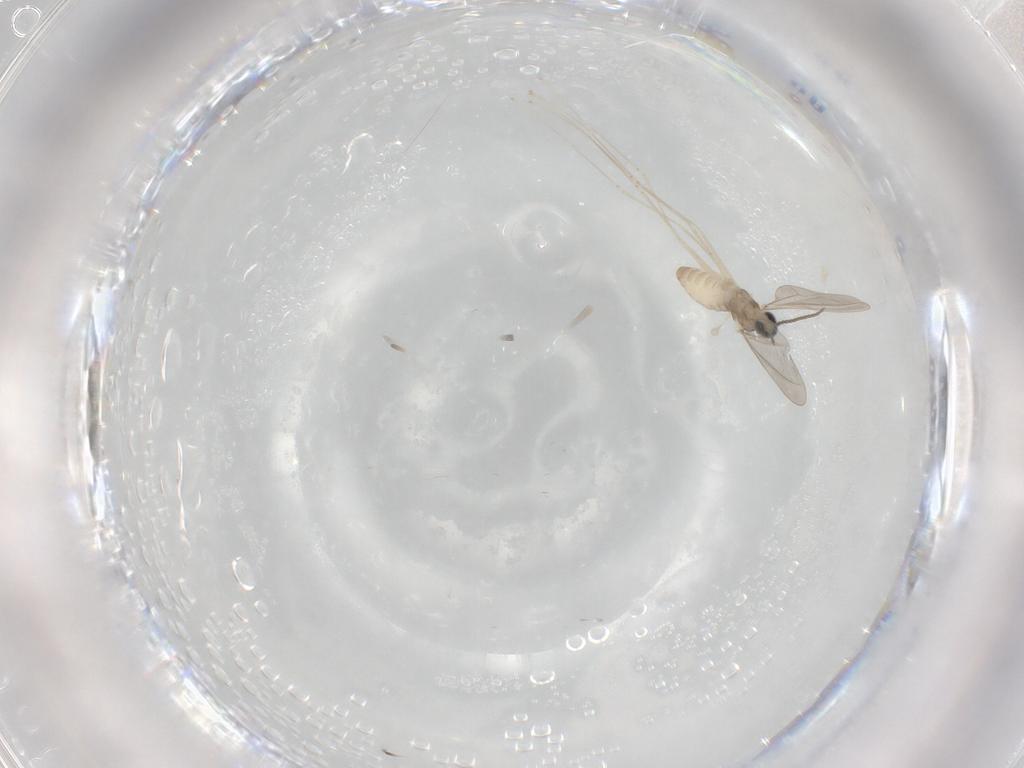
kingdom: Animalia
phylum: Arthropoda
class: Insecta
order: Diptera
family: Cecidomyiidae
